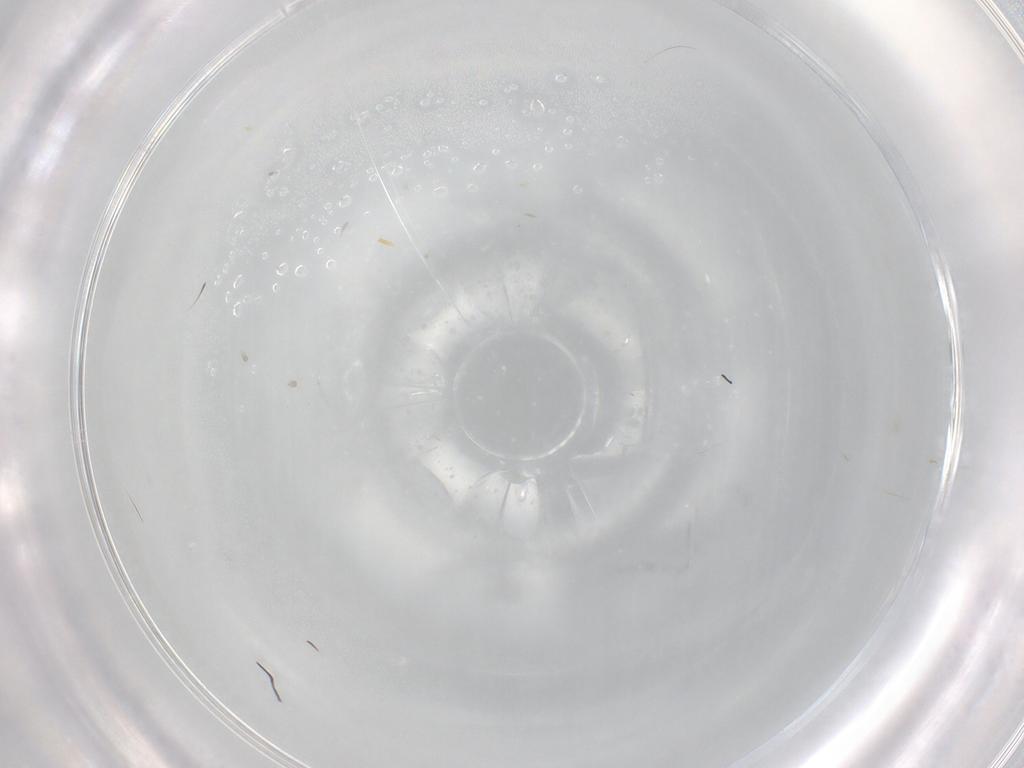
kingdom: Animalia
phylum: Arthropoda
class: Insecta
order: Diptera
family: Ceratopogonidae
